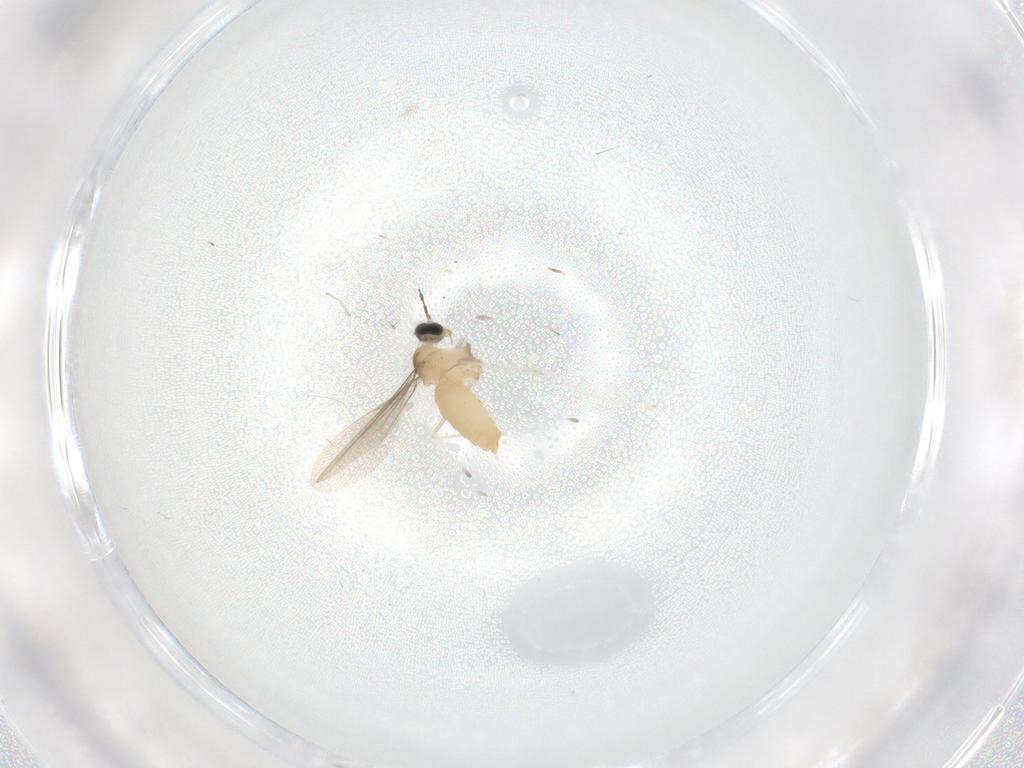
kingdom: Animalia
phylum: Arthropoda
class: Insecta
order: Diptera
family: Cecidomyiidae
